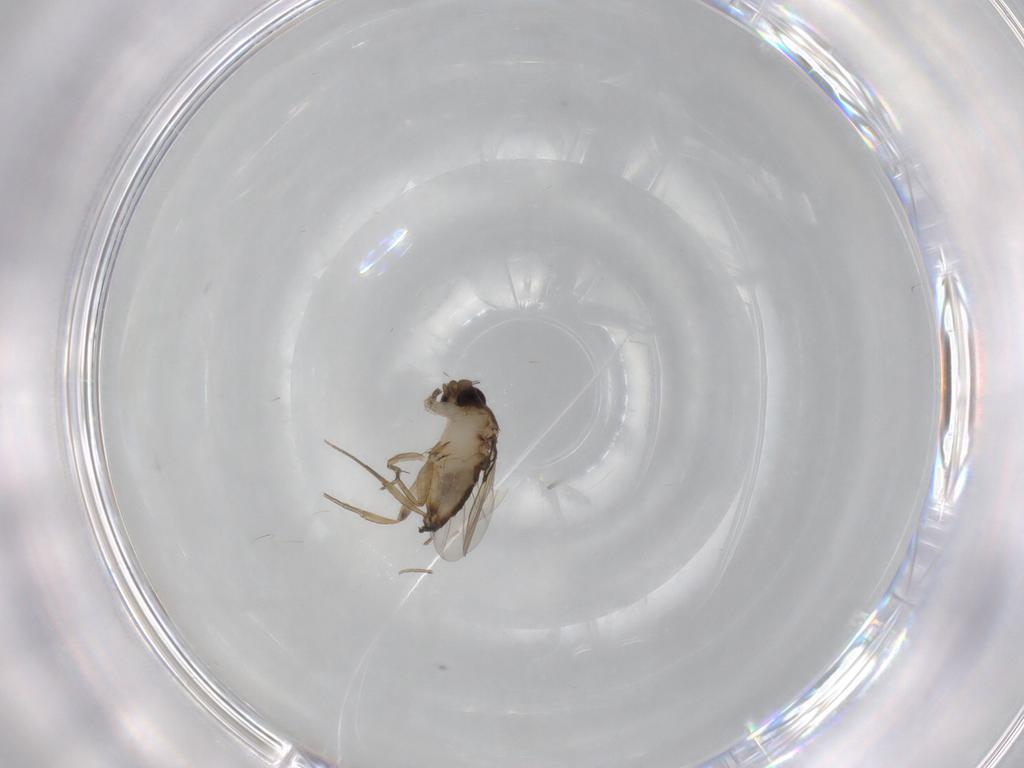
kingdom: Animalia
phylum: Arthropoda
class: Insecta
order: Diptera
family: Phoridae
